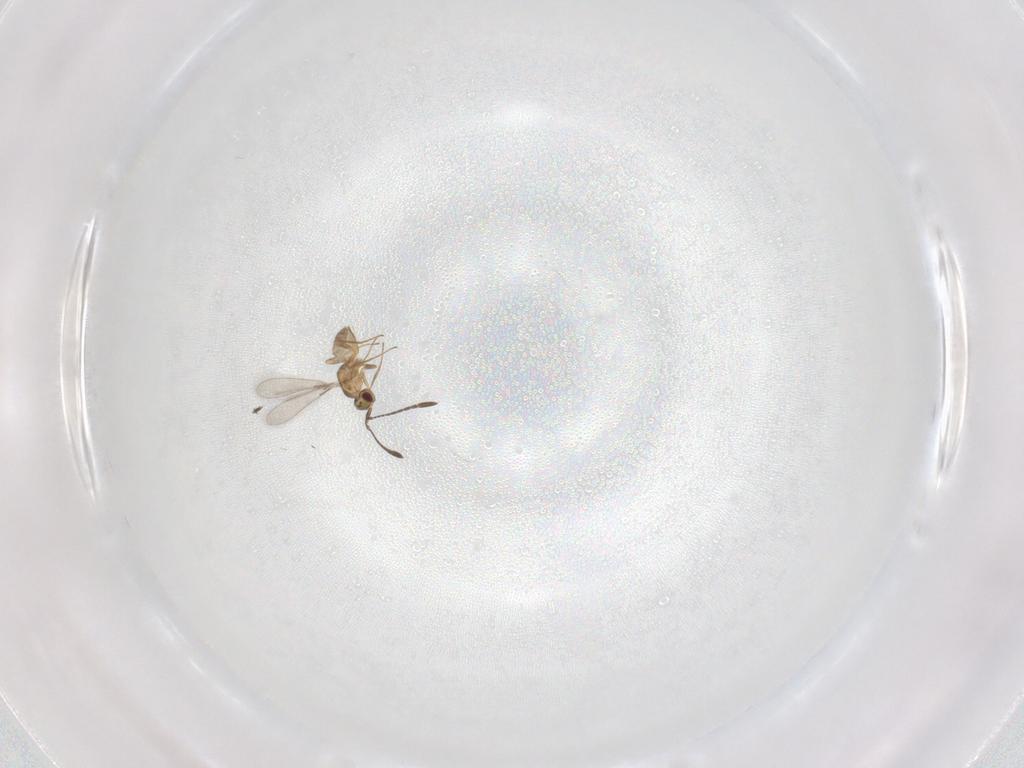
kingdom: Animalia
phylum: Arthropoda
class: Insecta
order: Hymenoptera
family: Mymaridae
